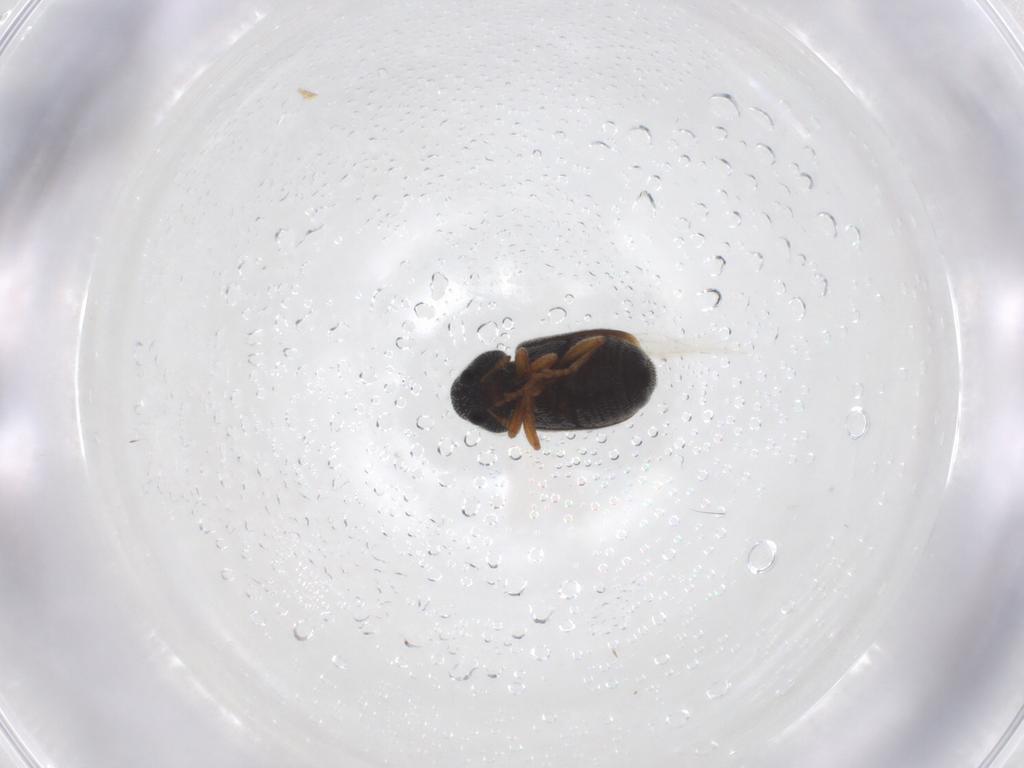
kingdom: Animalia
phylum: Arthropoda
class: Insecta
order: Coleoptera
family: Anthribidae
